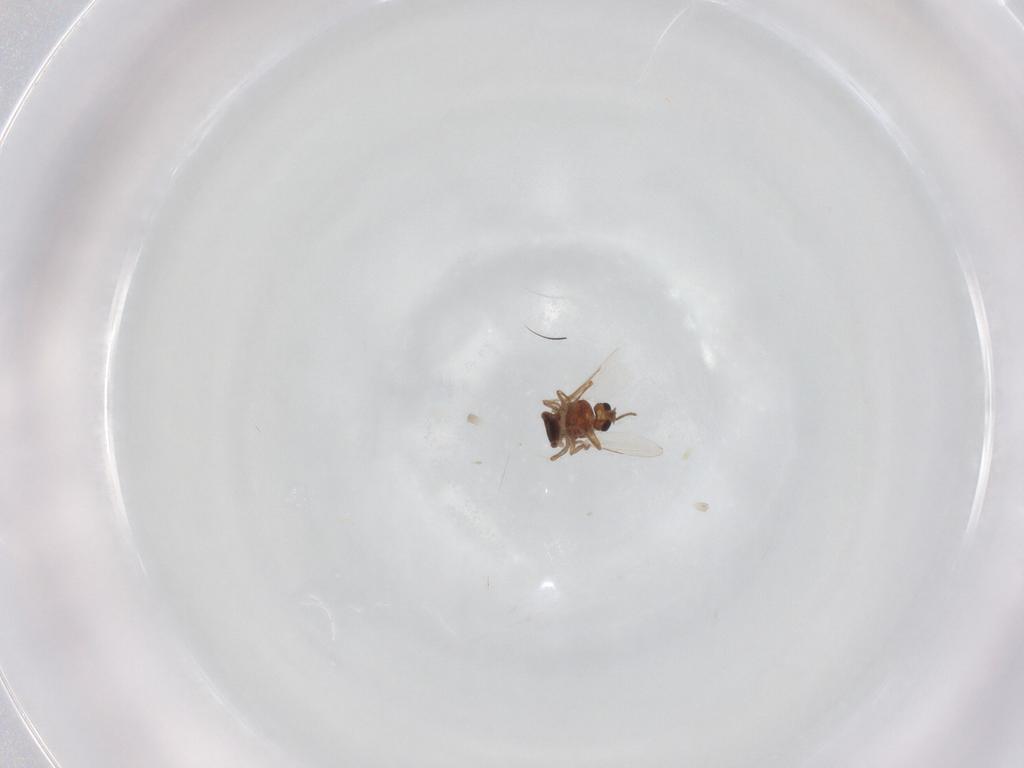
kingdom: Animalia
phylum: Arthropoda
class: Insecta
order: Diptera
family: Ceratopogonidae
